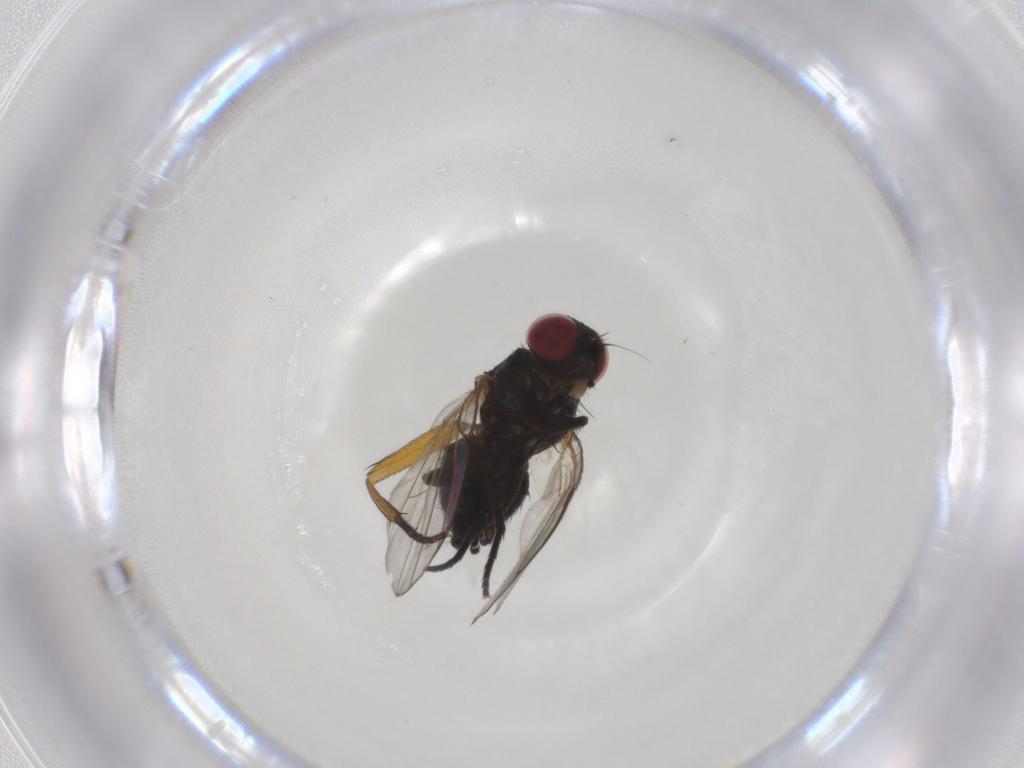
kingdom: Animalia
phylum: Arthropoda
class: Insecta
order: Diptera
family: Agromyzidae
